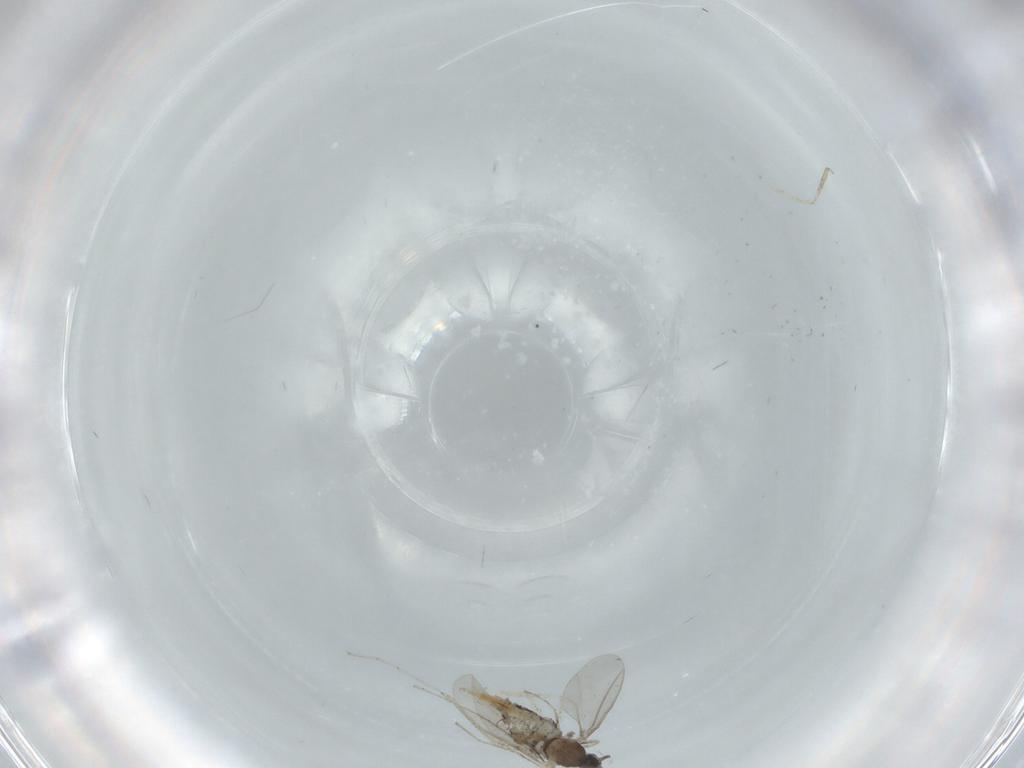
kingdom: Animalia
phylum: Arthropoda
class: Insecta
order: Diptera
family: Cecidomyiidae
